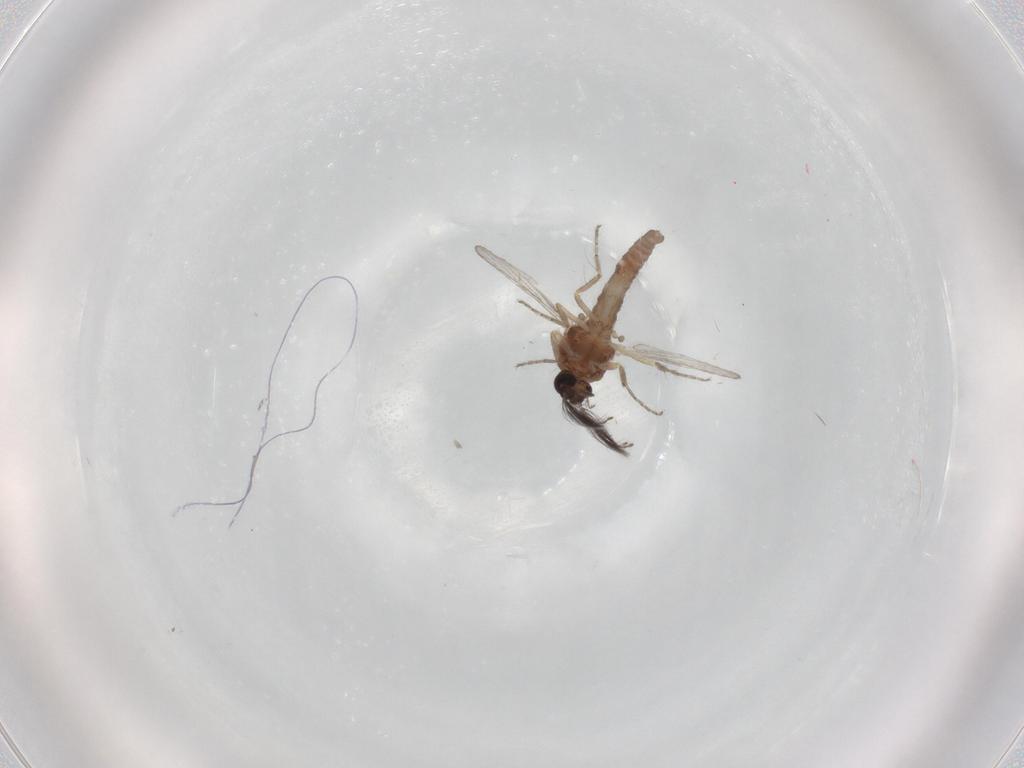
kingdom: Animalia
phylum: Arthropoda
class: Insecta
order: Diptera
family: Ceratopogonidae
